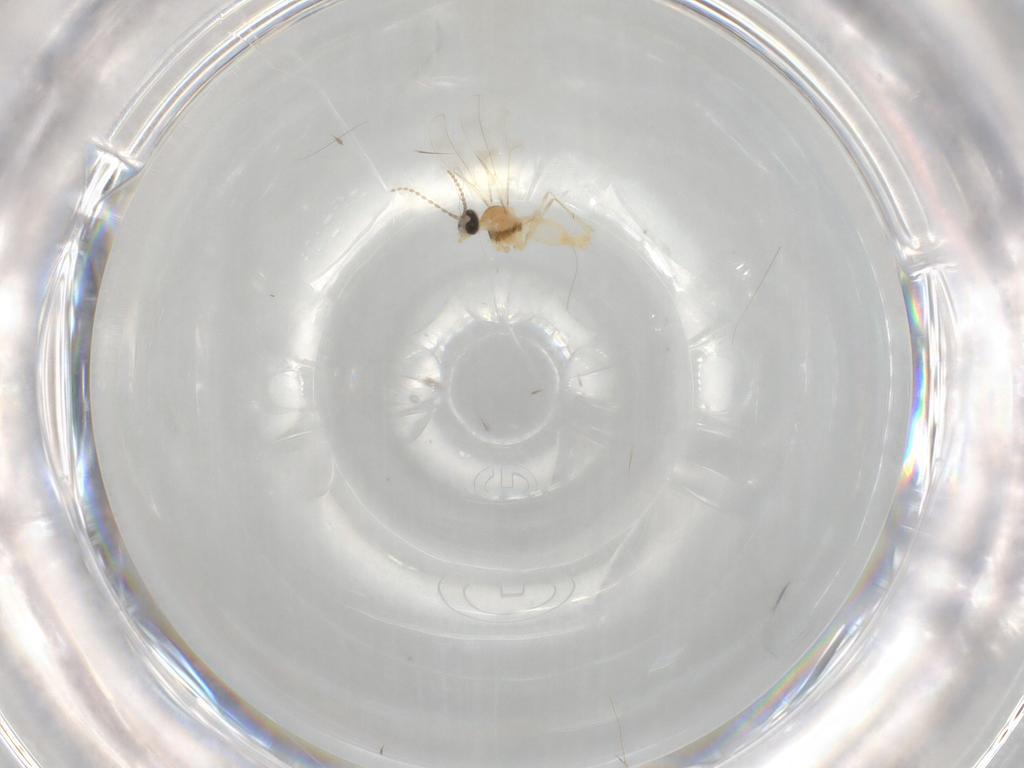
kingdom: Animalia
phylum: Arthropoda
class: Insecta
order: Diptera
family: Cecidomyiidae
